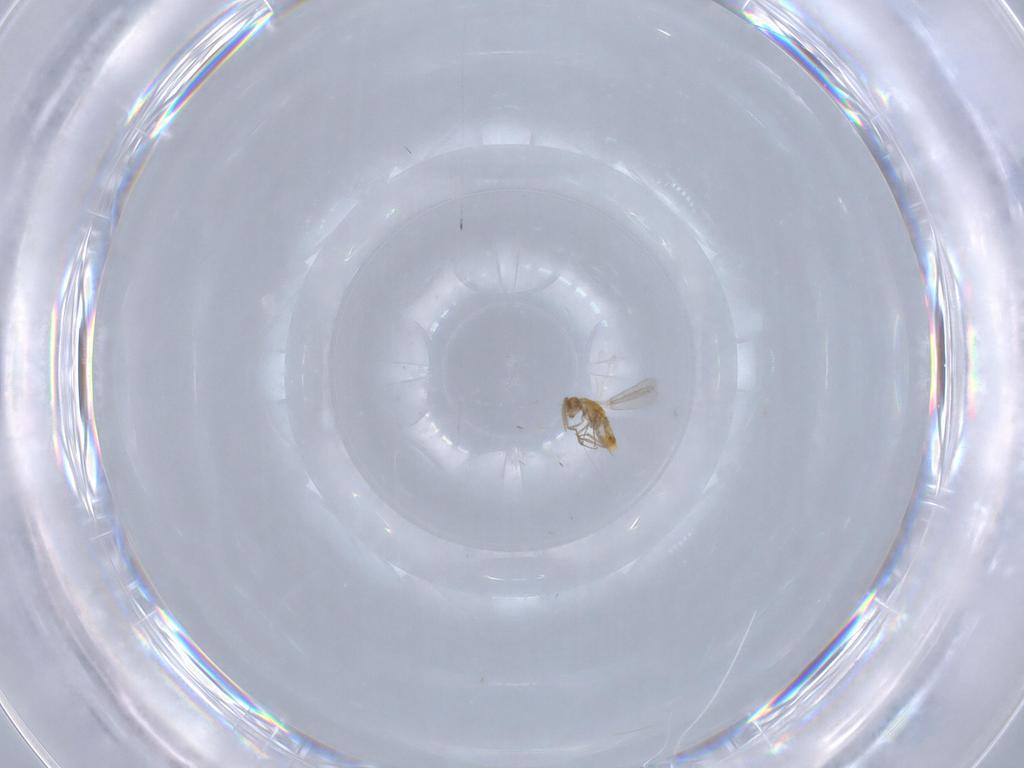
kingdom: Animalia
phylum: Arthropoda
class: Insecta
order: Hymenoptera
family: Aphelinidae
